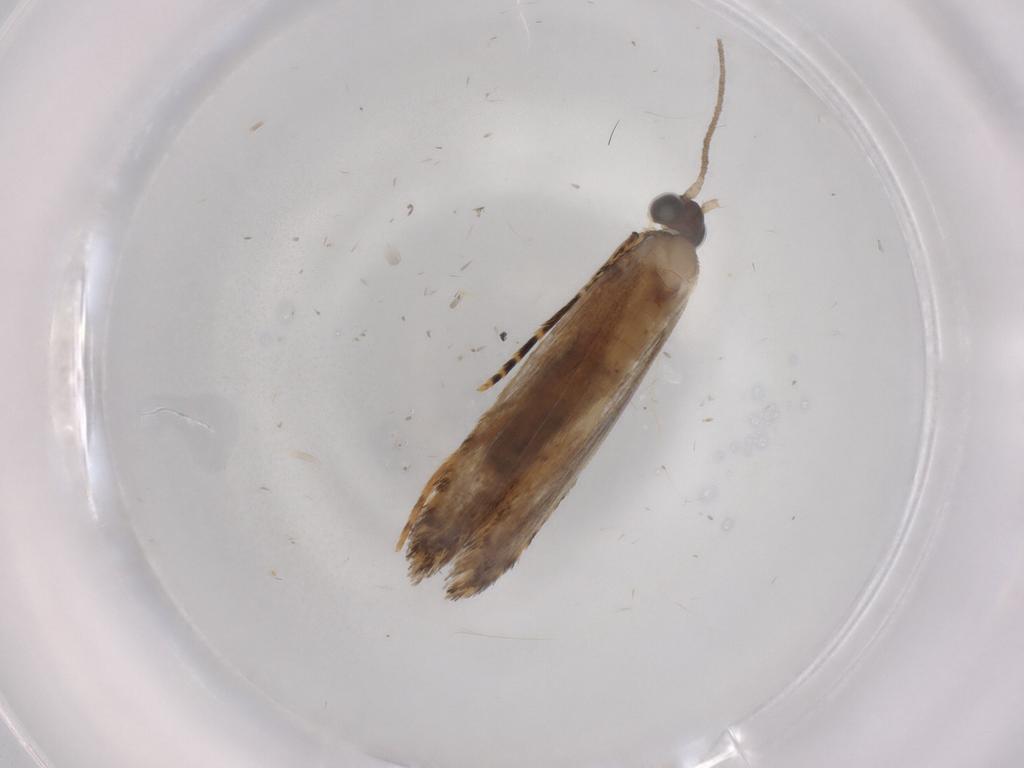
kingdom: Animalia
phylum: Arthropoda
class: Insecta
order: Lepidoptera
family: Tineidae
